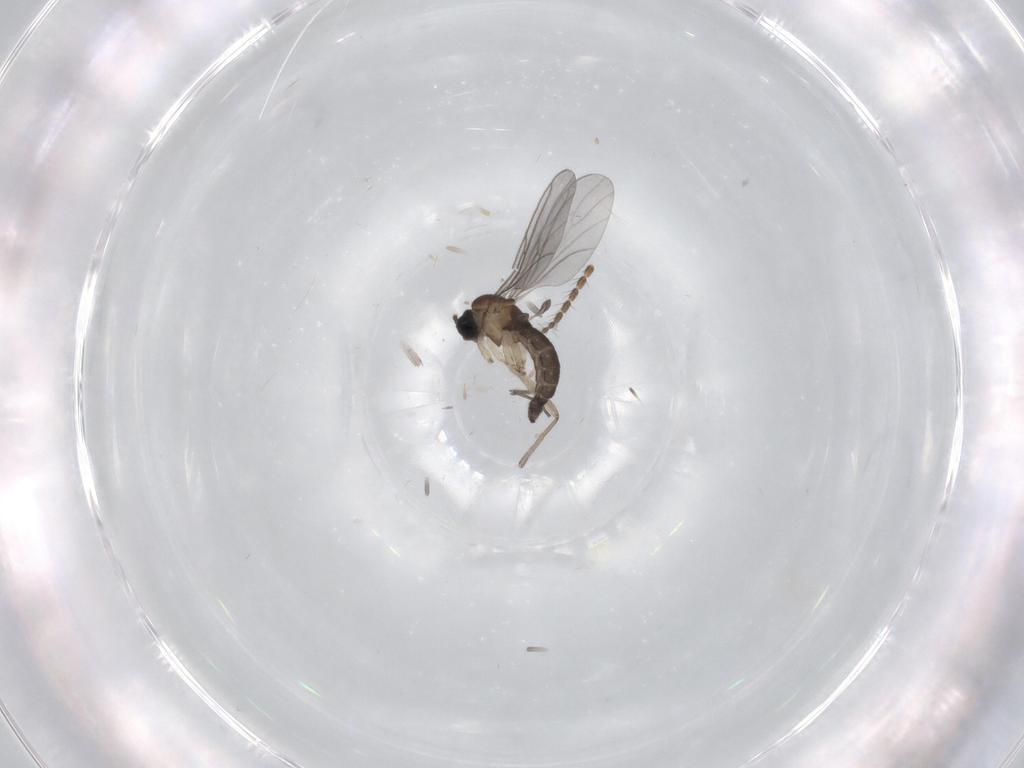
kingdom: Animalia
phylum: Arthropoda
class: Insecta
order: Diptera
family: Sciaridae
